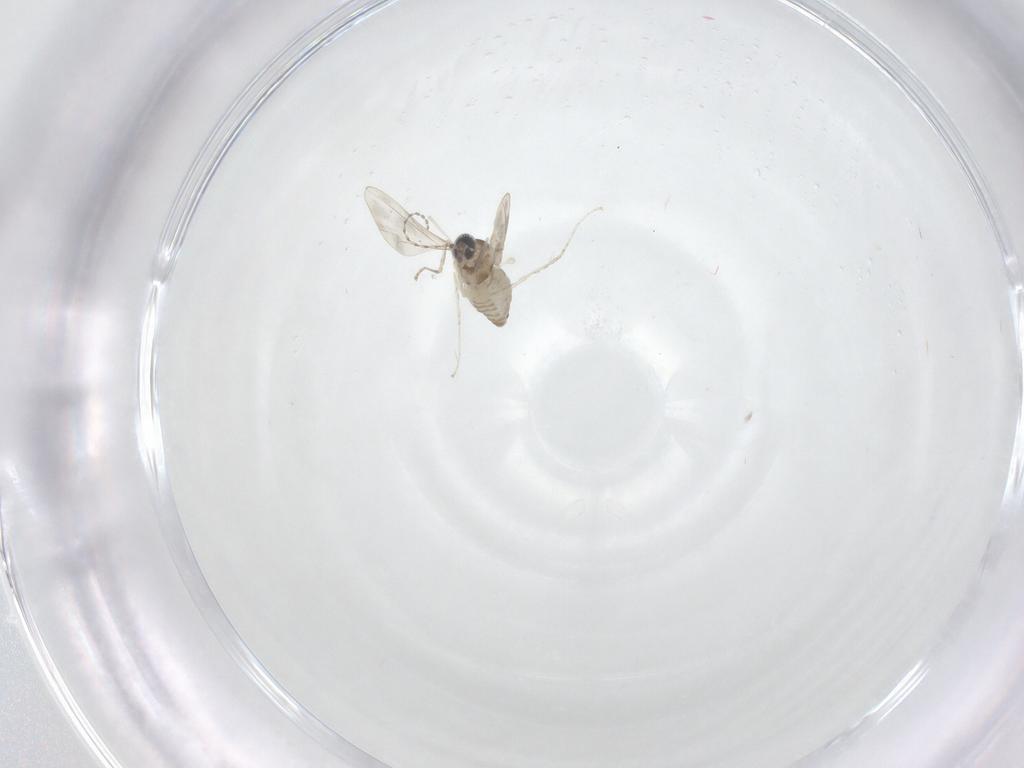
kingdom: Animalia
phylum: Arthropoda
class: Insecta
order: Diptera
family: Cecidomyiidae
